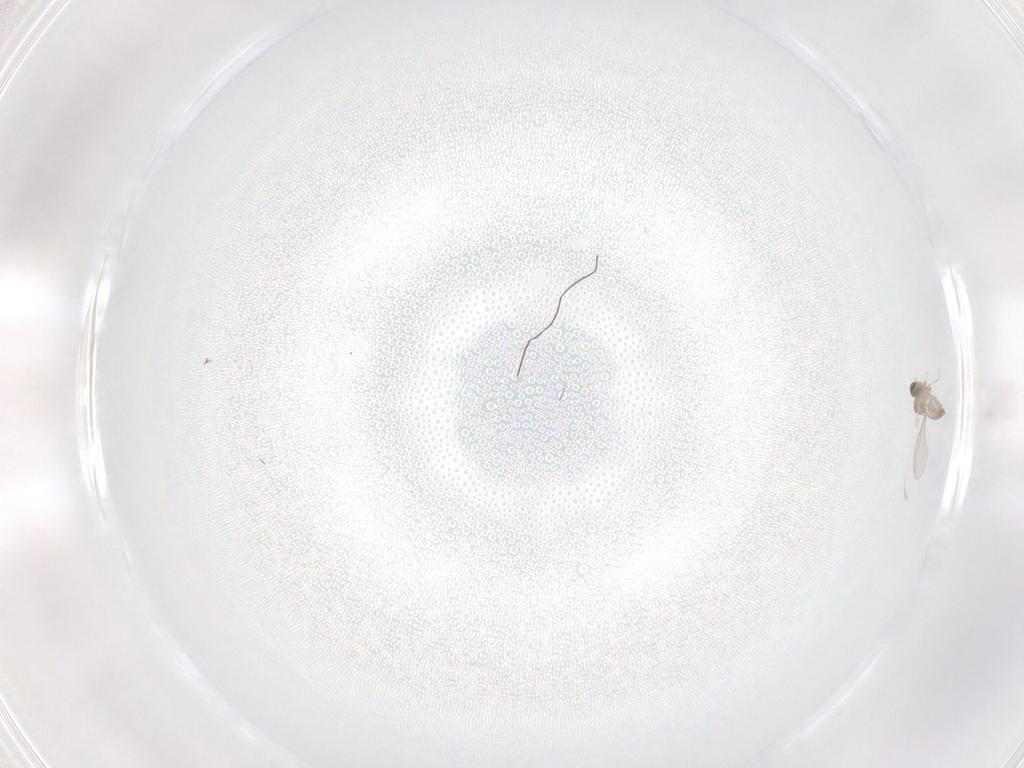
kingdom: Animalia
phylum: Arthropoda
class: Insecta
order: Diptera
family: Cecidomyiidae
